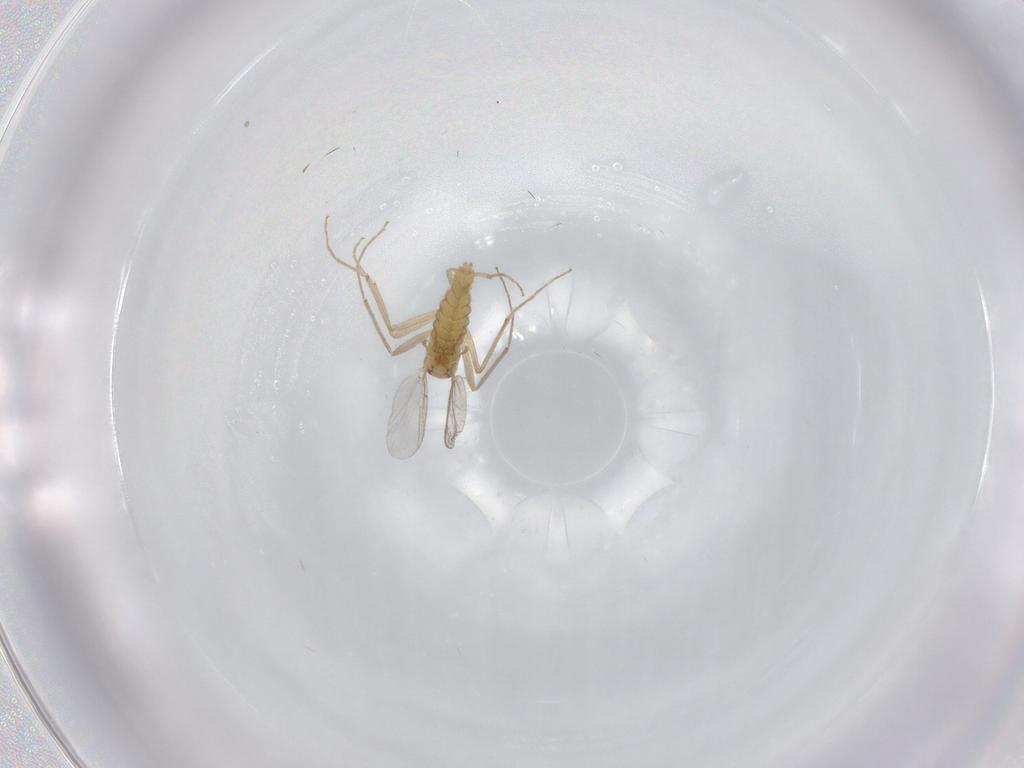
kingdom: Animalia
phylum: Arthropoda
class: Insecta
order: Diptera
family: Chironomidae
